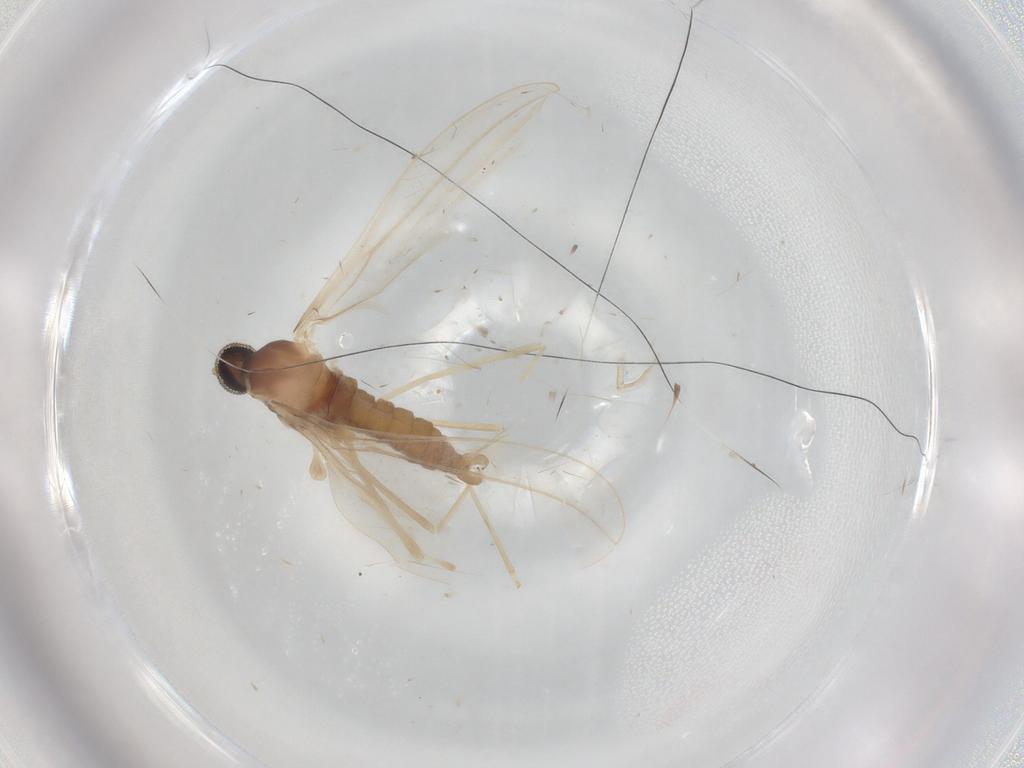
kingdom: Animalia
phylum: Arthropoda
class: Insecta
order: Diptera
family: Cecidomyiidae
